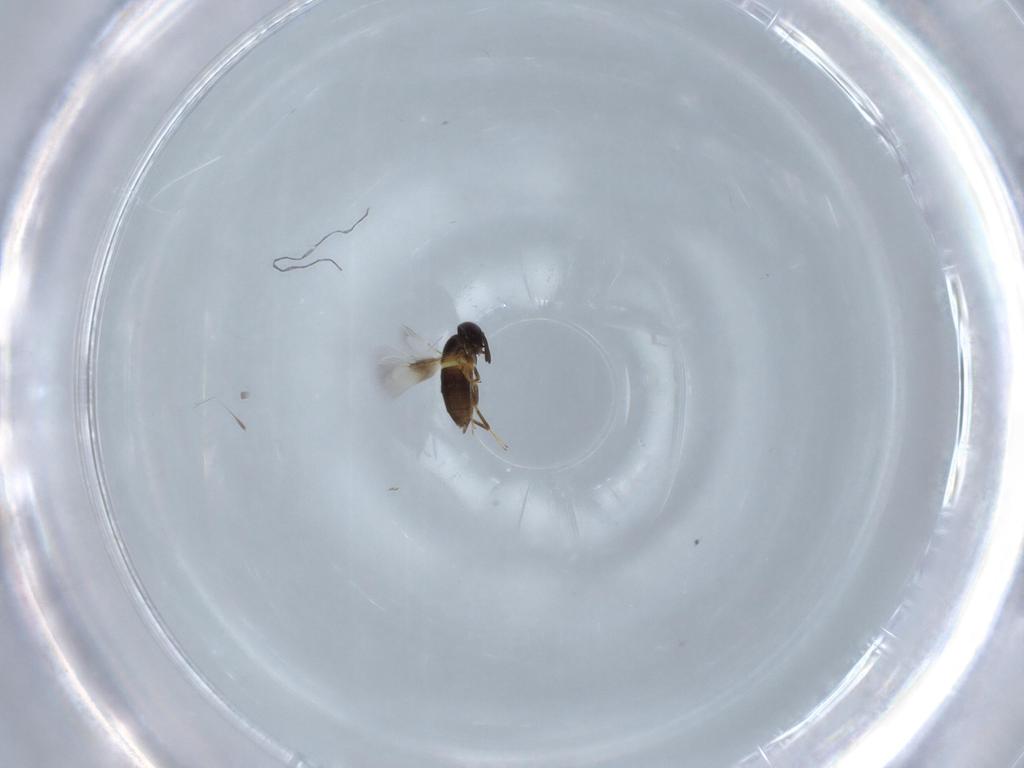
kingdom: Animalia
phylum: Arthropoda
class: Insecta
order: Hymenoptera
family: Signiphoridae
